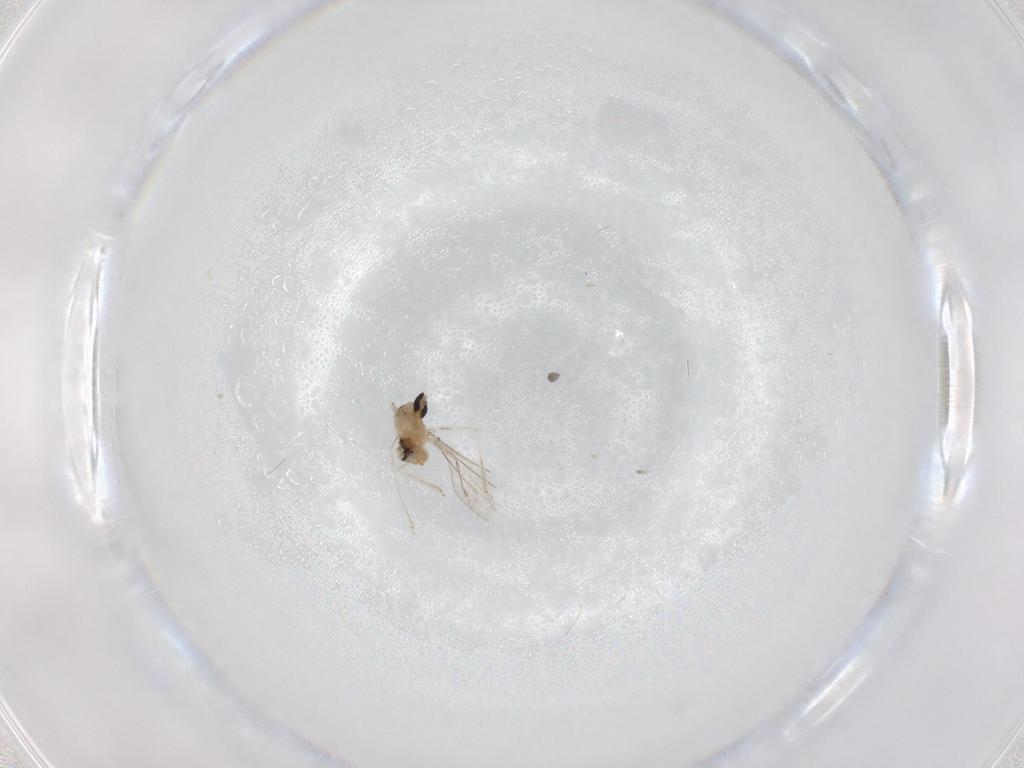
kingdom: Animalia
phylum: Arthropoda
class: Insecta
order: Diptera
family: Cecidomyiidae
